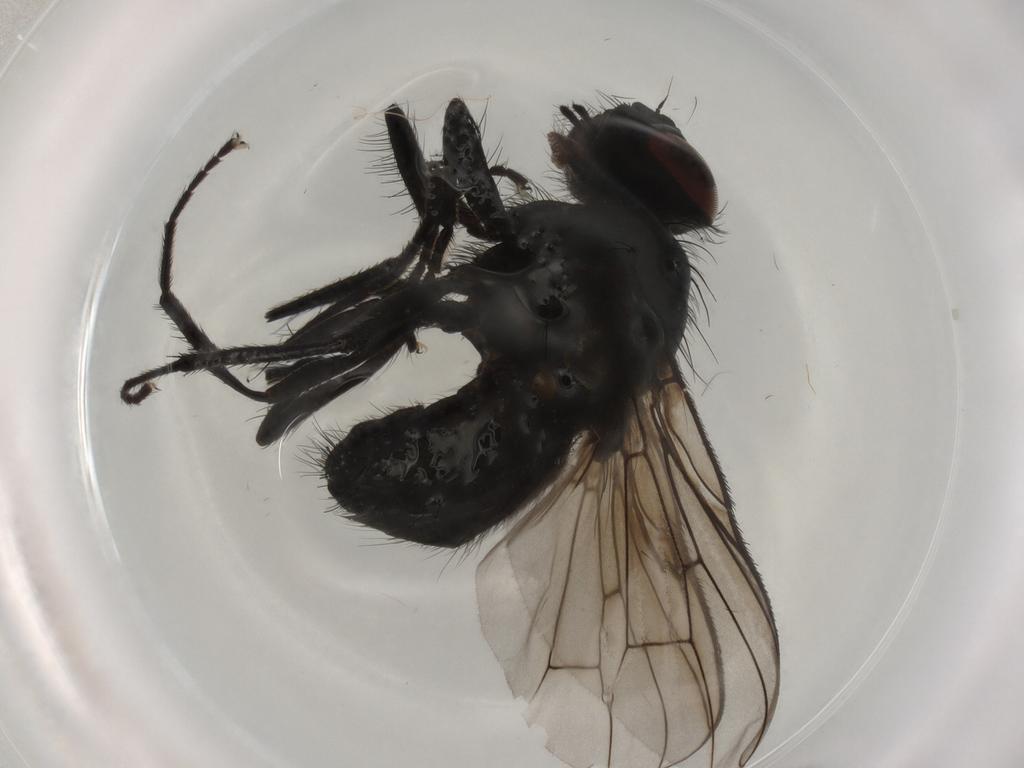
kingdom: Animalia
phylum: Arthropoda
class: Insecta
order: Diptera
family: Muscidae
